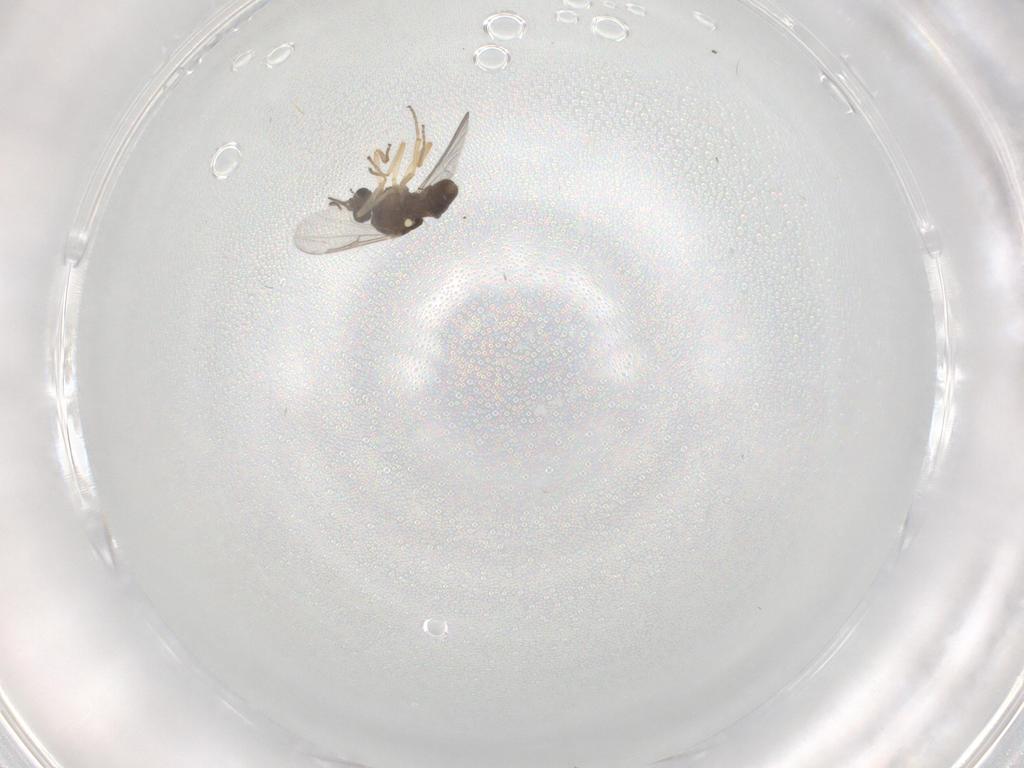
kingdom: Animalia
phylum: Arthropoda
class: Insecta
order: Diptera
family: Ceratopogonidae
